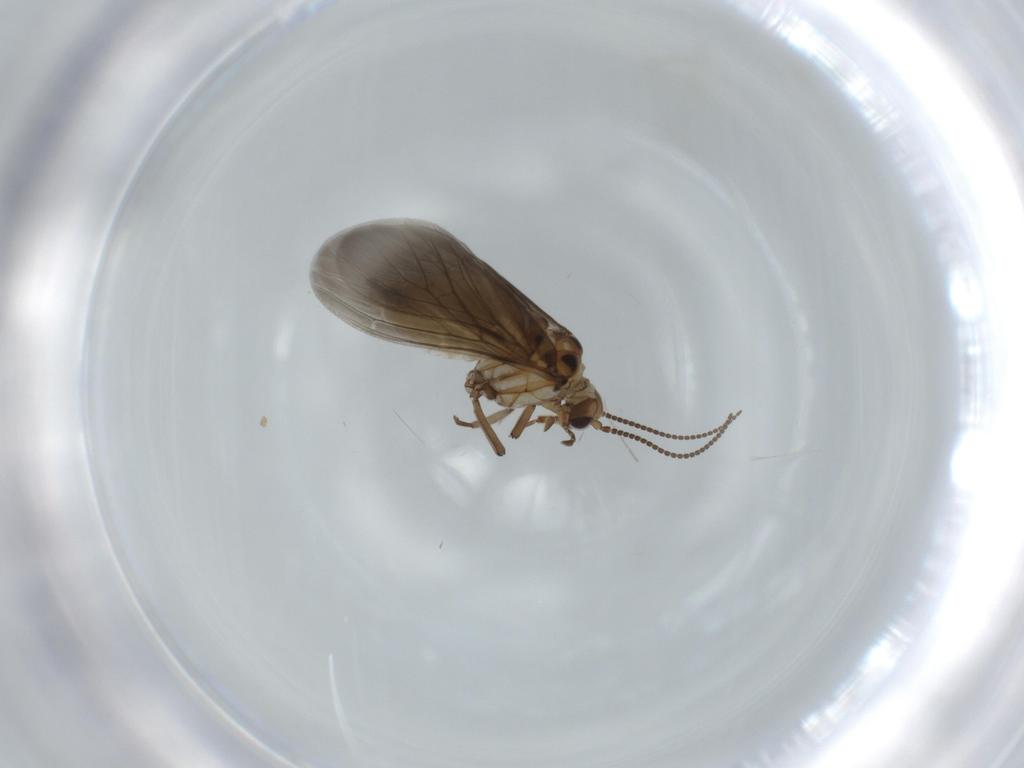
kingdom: Animalia
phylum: Arthropoda
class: Insecta
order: Neuroptera
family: Coniopterygidae
